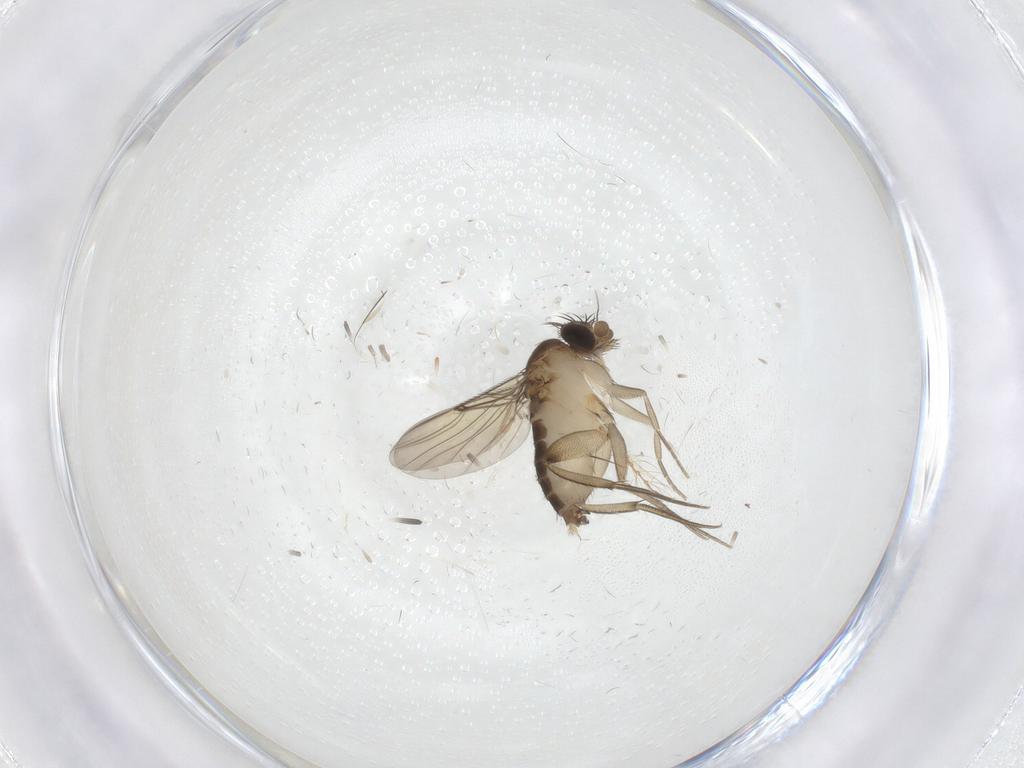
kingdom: Animalia
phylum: Arthropoda
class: Insecta
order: Diptera
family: Phoridae
